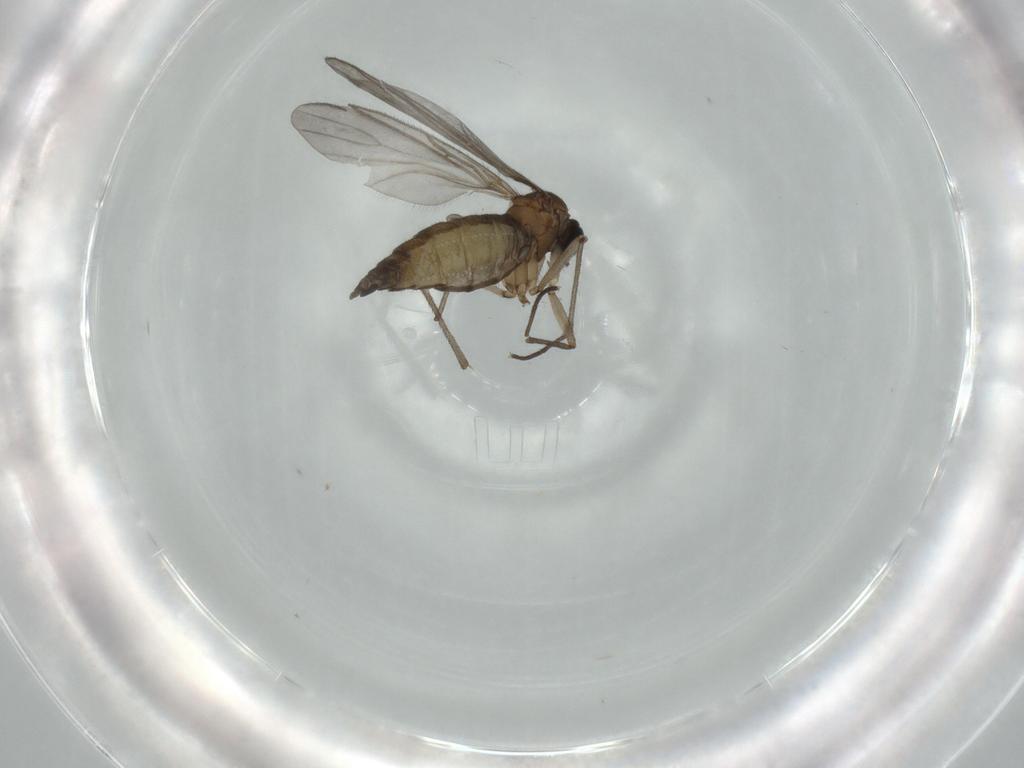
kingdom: Animalia
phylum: Arthropoda
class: Insecta
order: Diptera
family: Sciaridae
